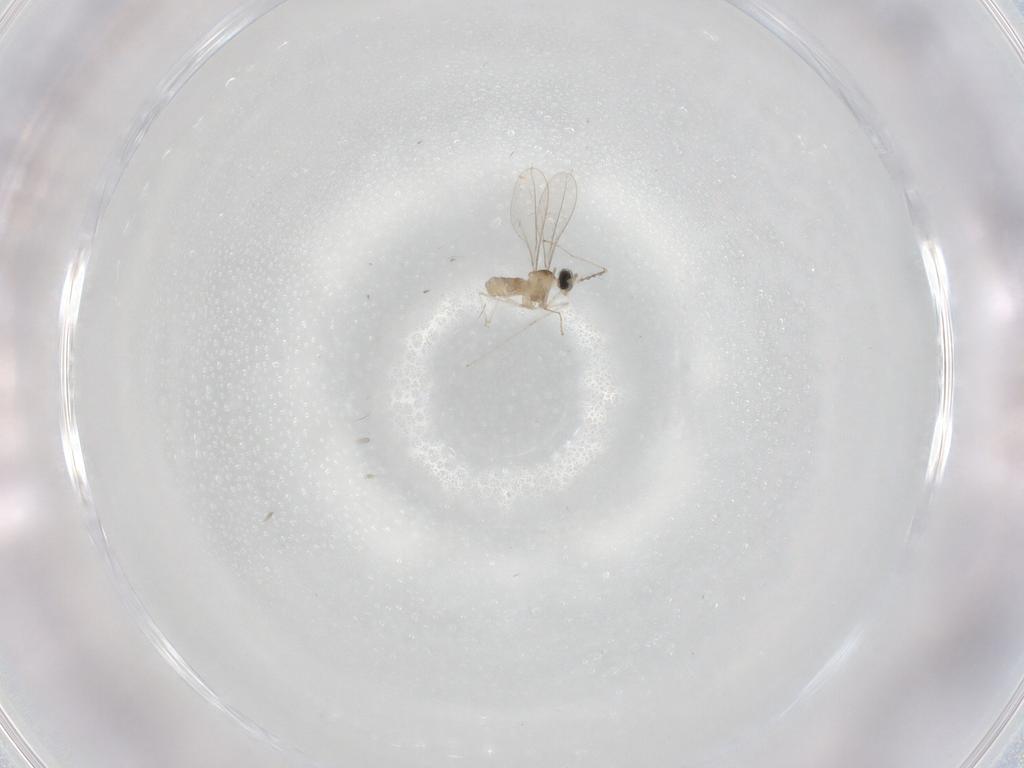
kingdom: Animalia
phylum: Arthropoda
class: Insecta
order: Diptera
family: Cecidomyiidae
